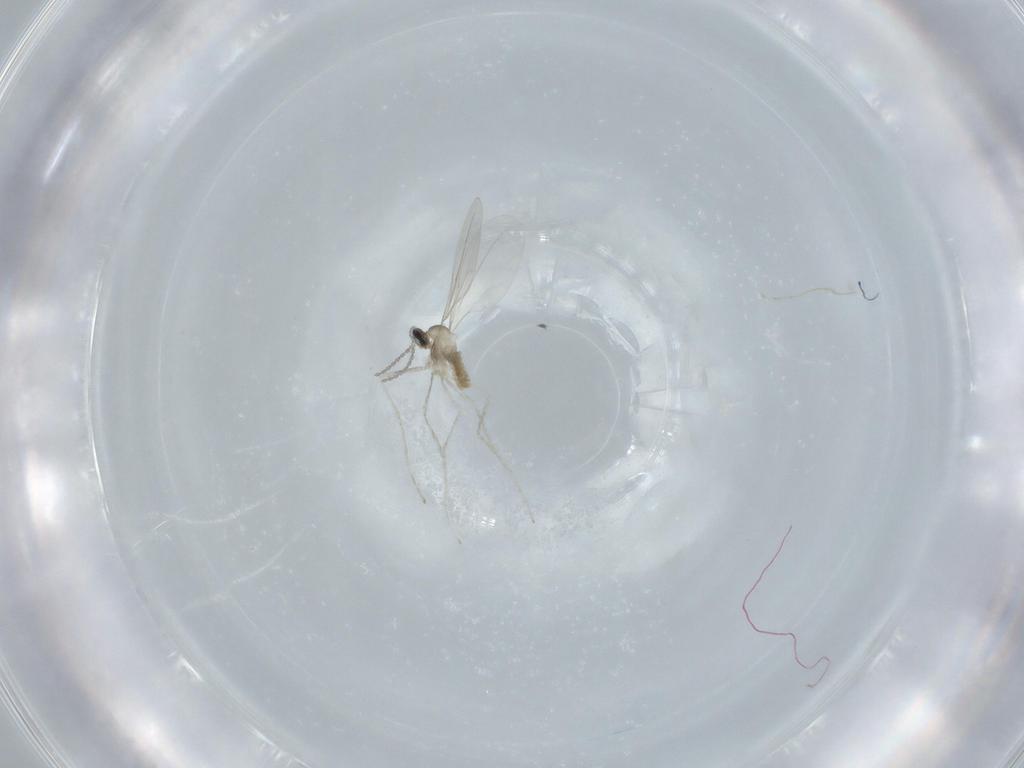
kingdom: Animalia
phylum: Arthropoda
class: Insecta
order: Diptera
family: Cecidomyiidae
